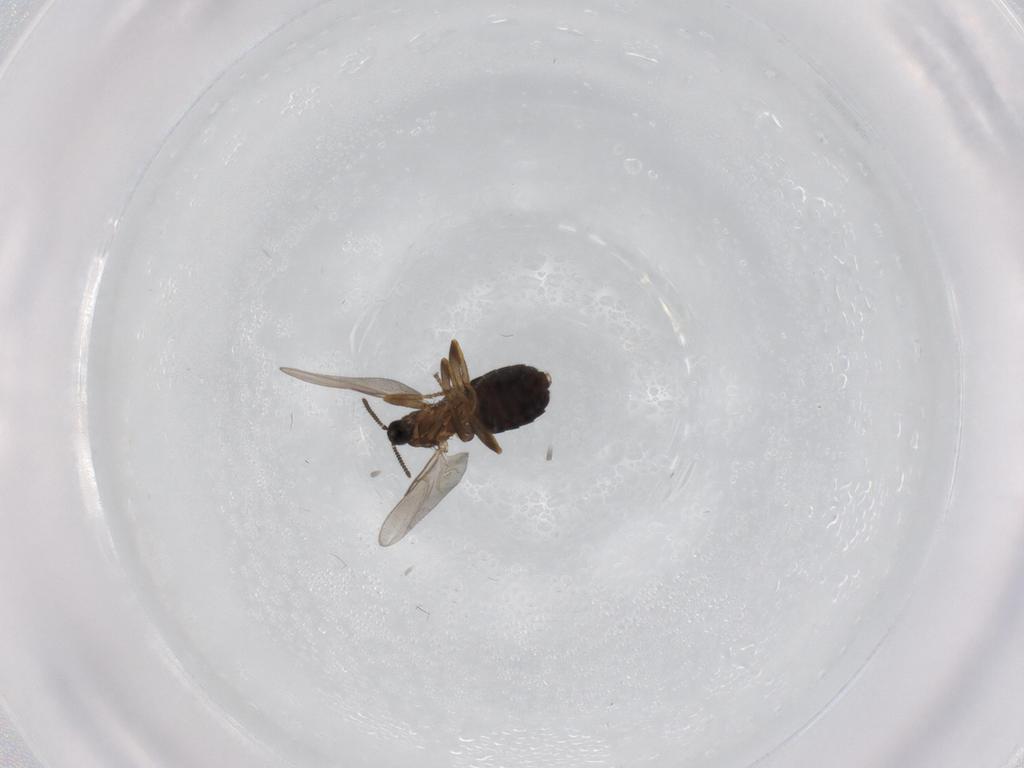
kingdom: Animalia
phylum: Arthropoda
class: Insecta
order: Diptera
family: Scatopsidae
